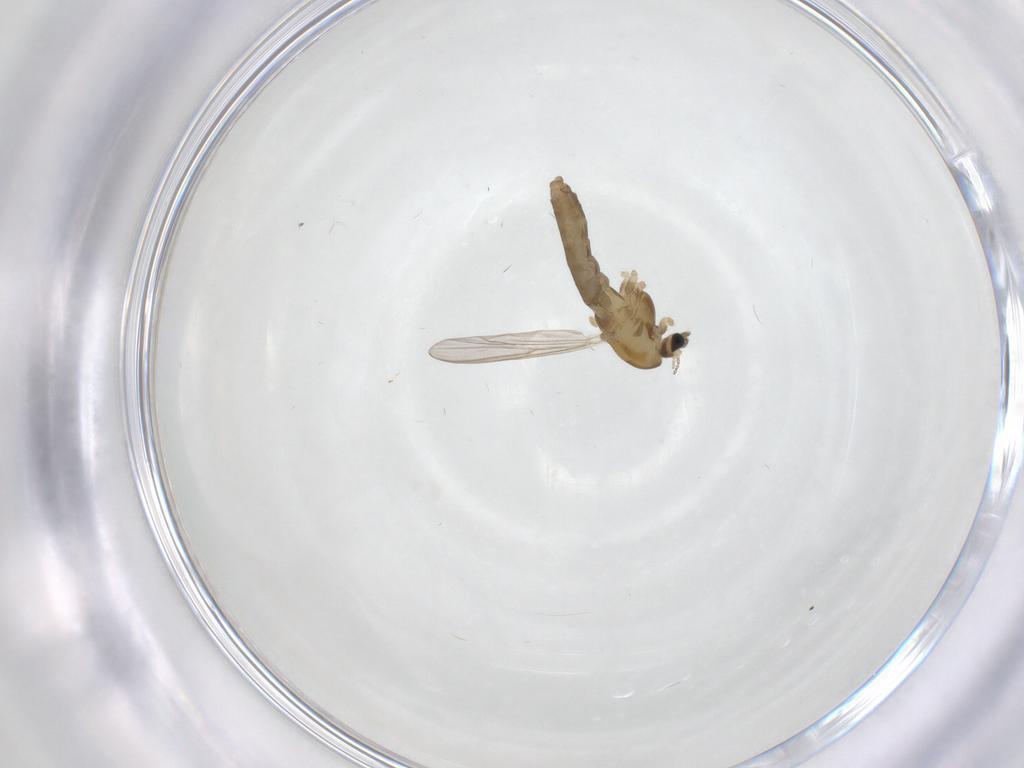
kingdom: Animalia
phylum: Arthropoda
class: Insecta
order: Diptera
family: Chironomidae
